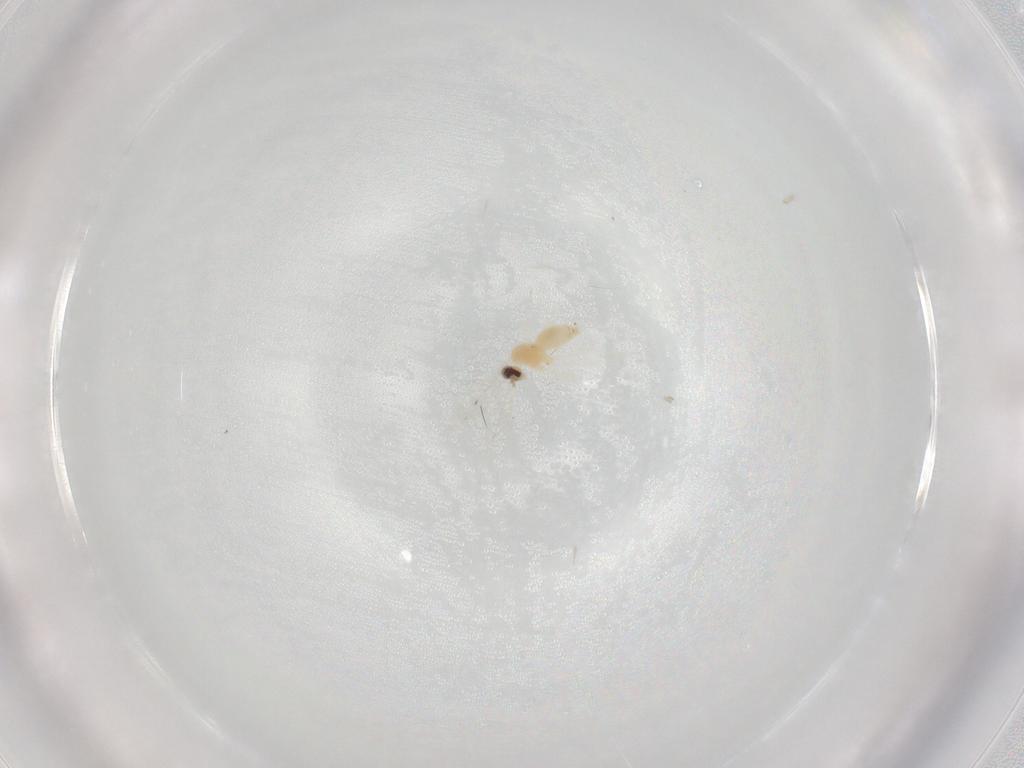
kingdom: Animalia
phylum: Arthropoda
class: Insecta
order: Diptera
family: Cecidomyiidae
